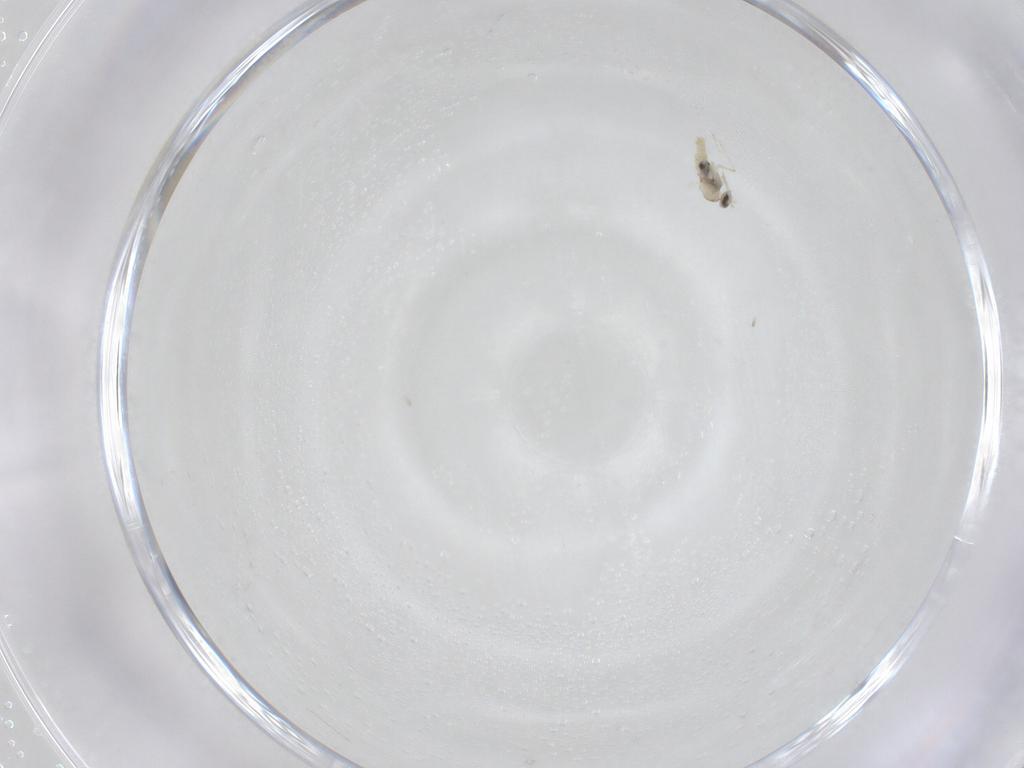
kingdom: Animalia
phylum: Arthropoda
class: Insecta
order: Diptera
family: Cecidomyiidae
